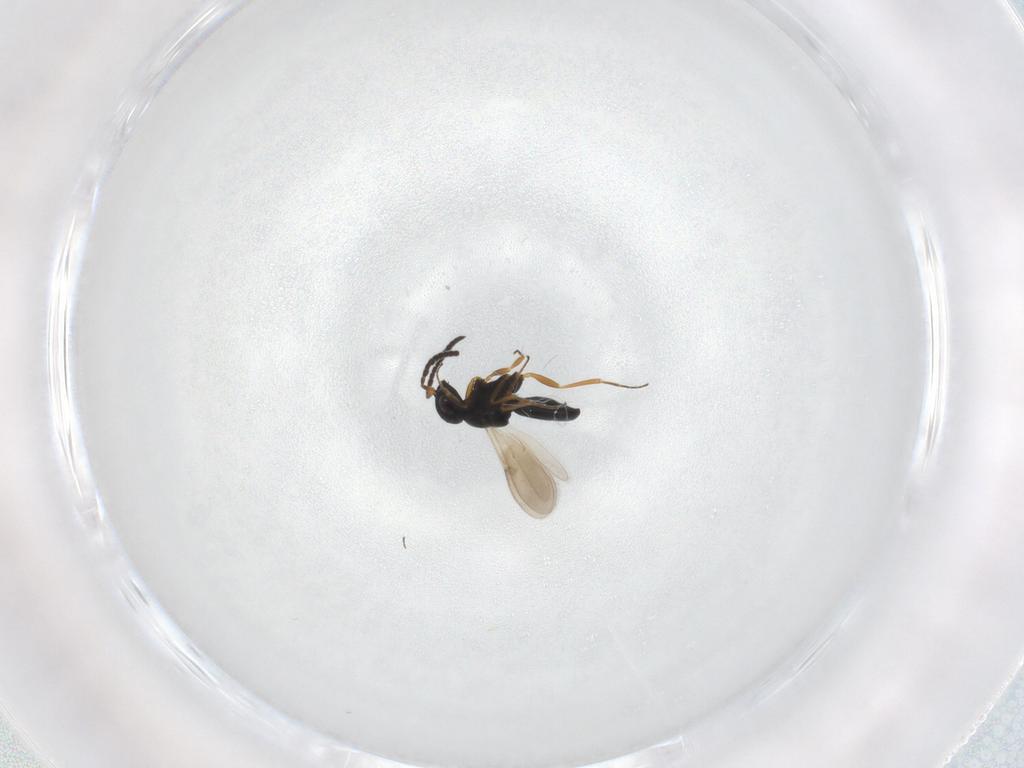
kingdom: Animalia
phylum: Arthropoda
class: Insecta
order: Hymenoptera
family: Scelionidae
